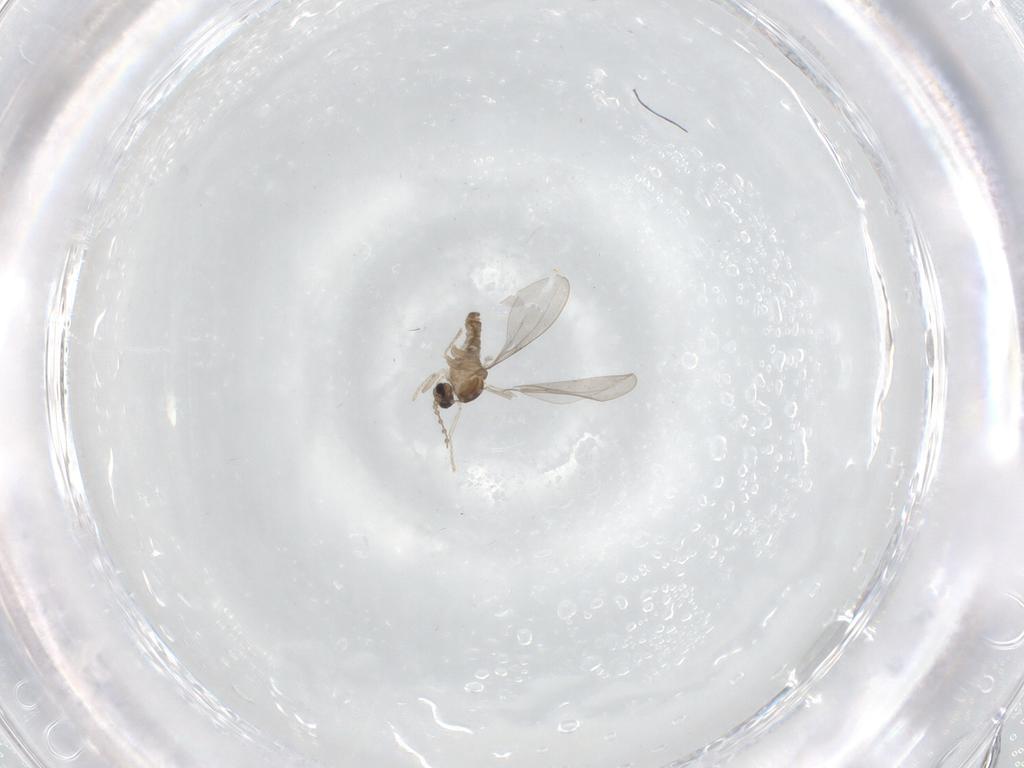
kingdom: Animalia
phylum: Arthropoda
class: Insecta
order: Diptera
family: Cecidomyiidae
